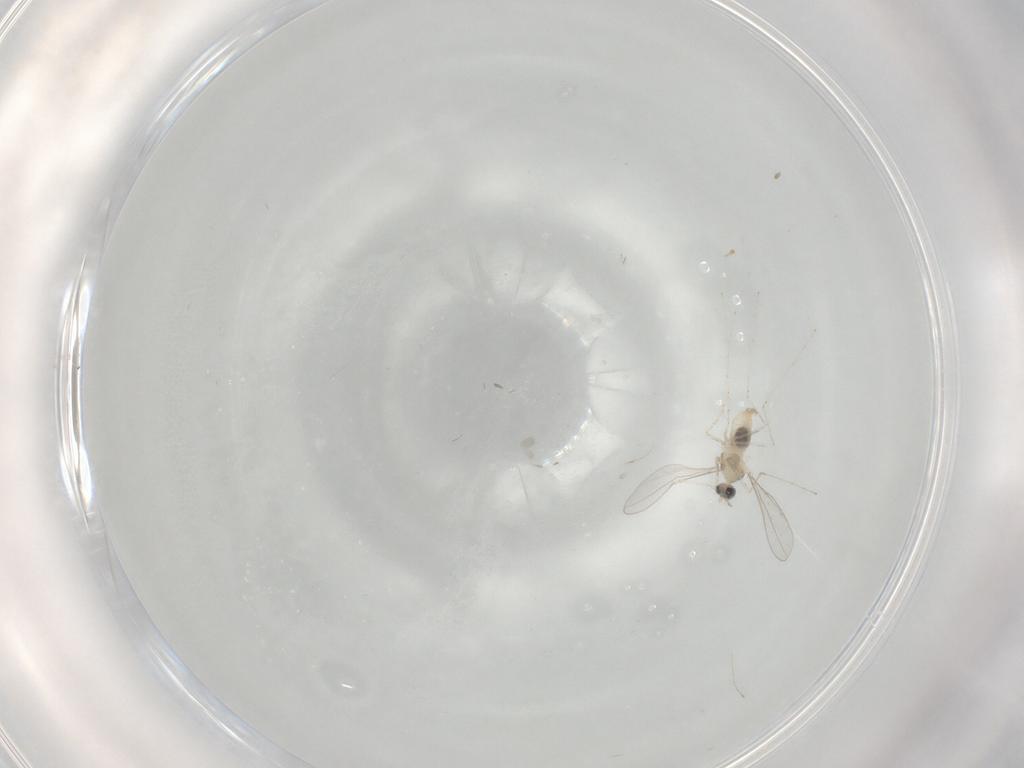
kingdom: Animalia
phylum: Arthropoda
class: Insecta
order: Diptera
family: Cecidomyiidae
